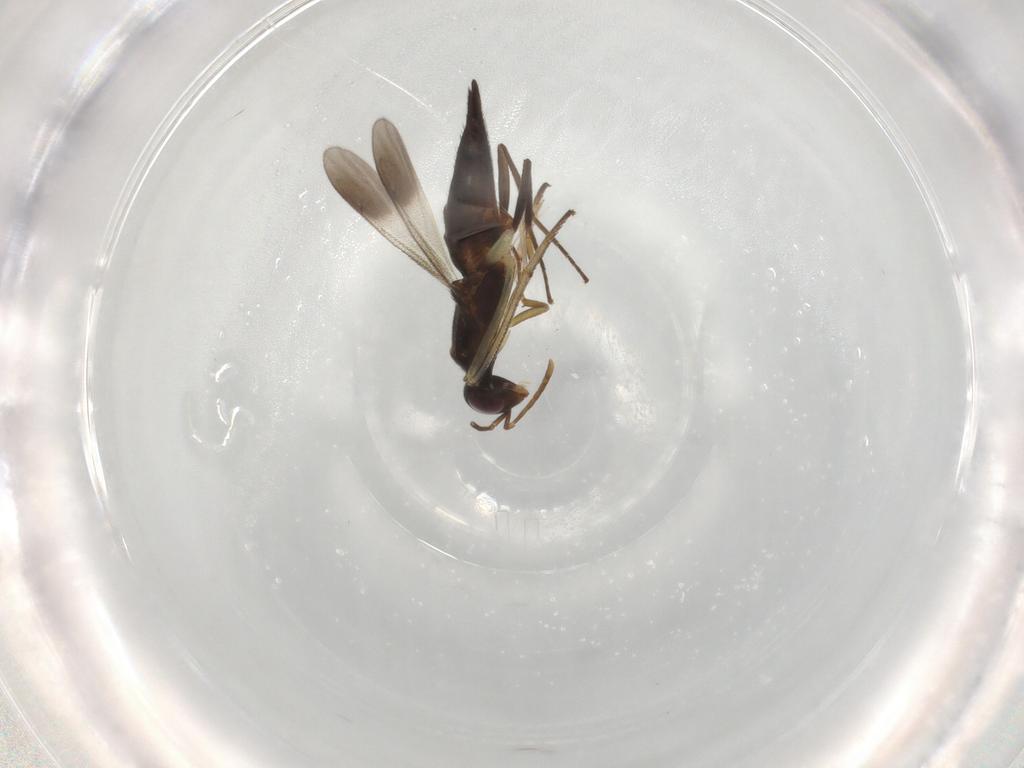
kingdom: Animalia
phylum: Arthropoda
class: Insecta
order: Hymenoptera
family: Eupelmidae
